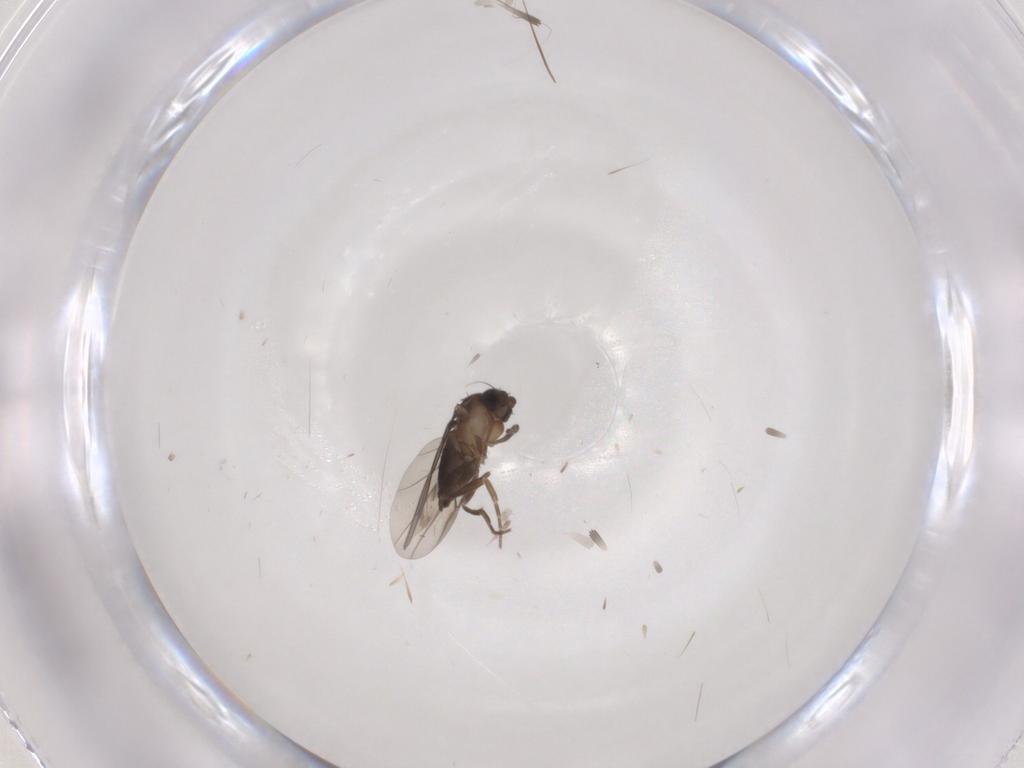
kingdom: Animalia
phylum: Arthropoda
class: Insecta
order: Diptera
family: Phoridae
